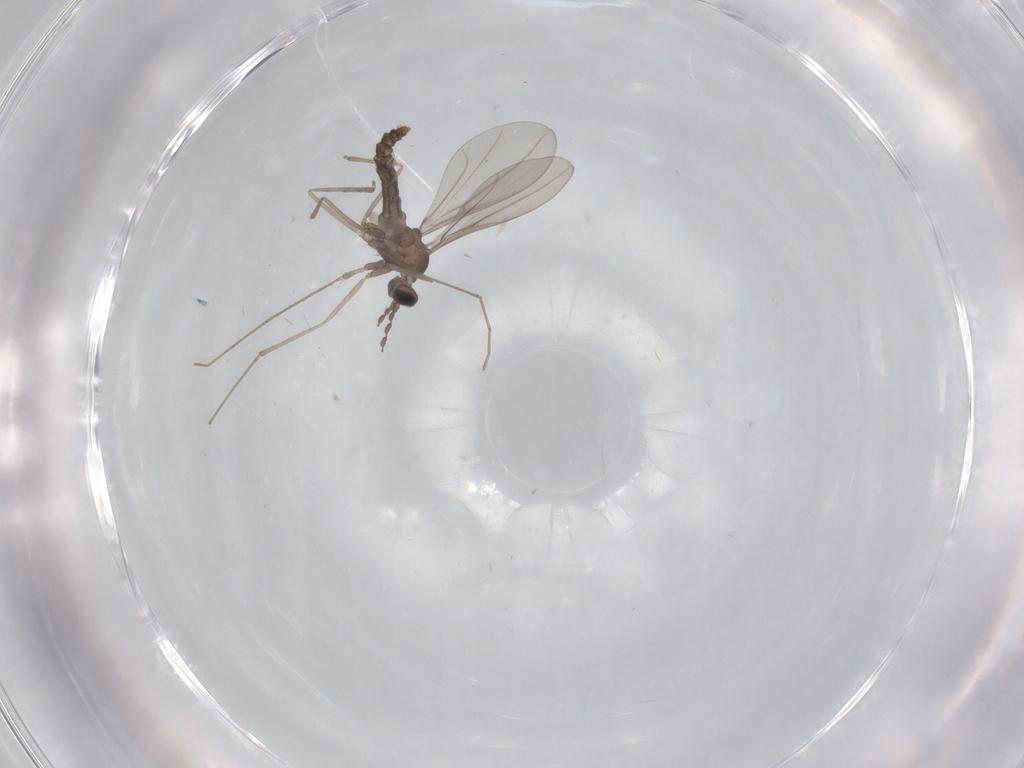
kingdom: Animalia
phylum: Arthropoda
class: Insecta
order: Diptera
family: Cecidomyiidae
